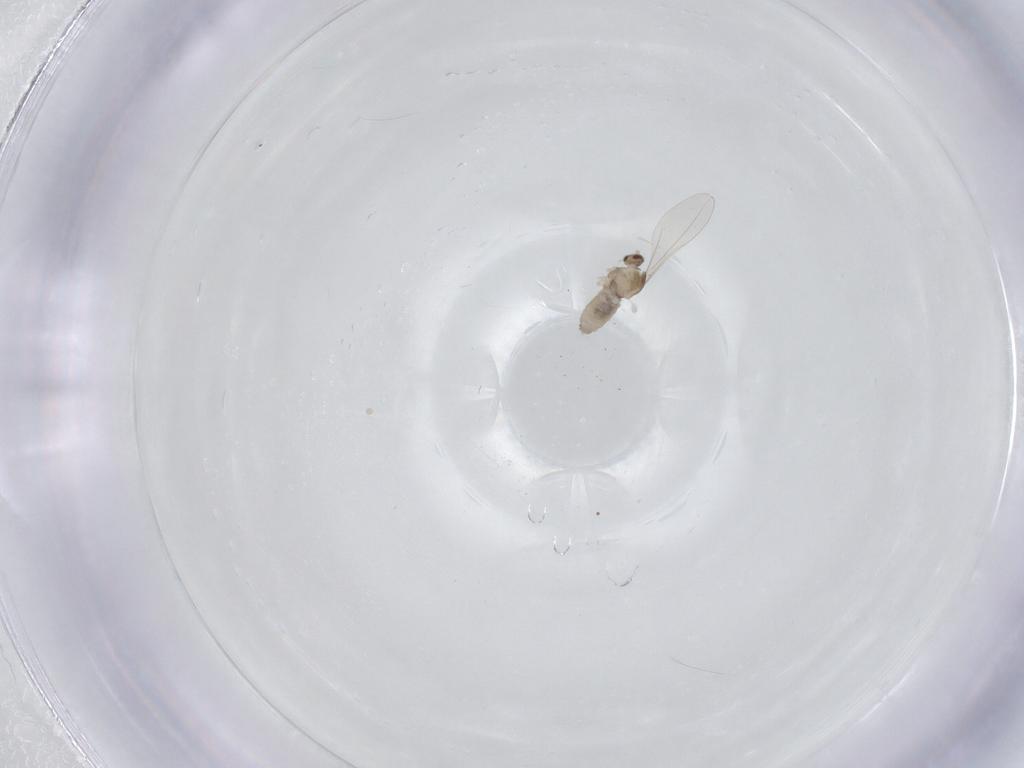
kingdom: Animalia
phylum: Arthropoda
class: Insecta
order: Diptera
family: Cecidomyiidae
